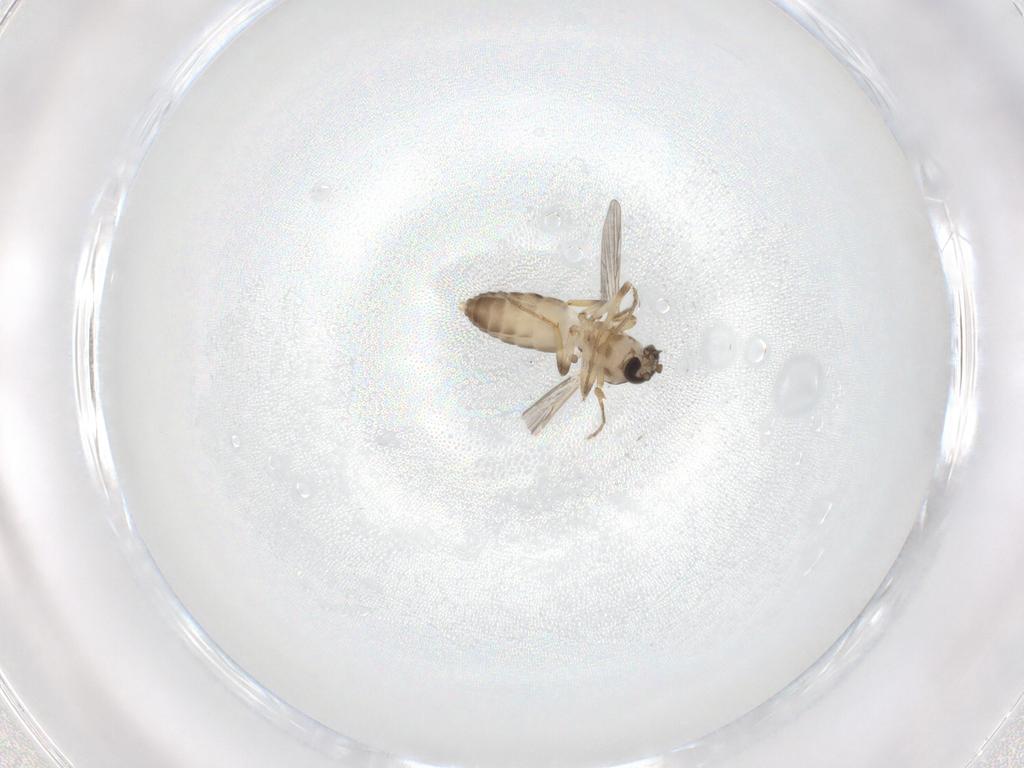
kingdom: Animalia
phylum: Arthropoda
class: Insecta
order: Diptera
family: Ceratopogonidae
